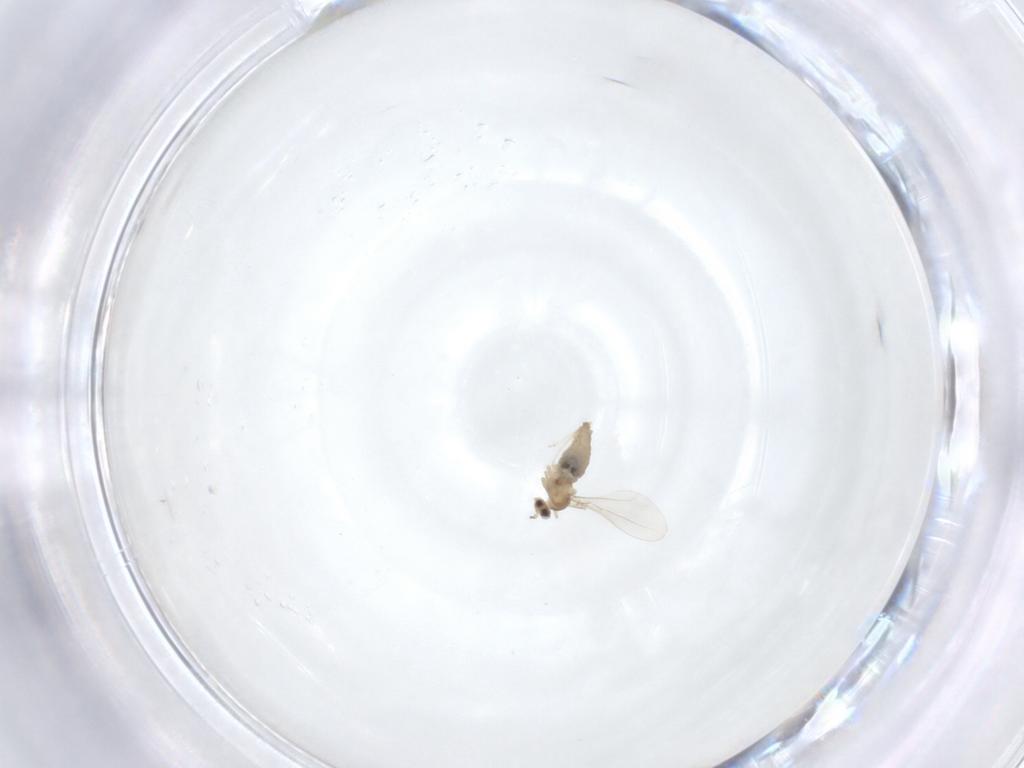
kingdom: Animalia
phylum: Arthropoda
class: Insecta
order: Diptera
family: Cecidomyiidae
